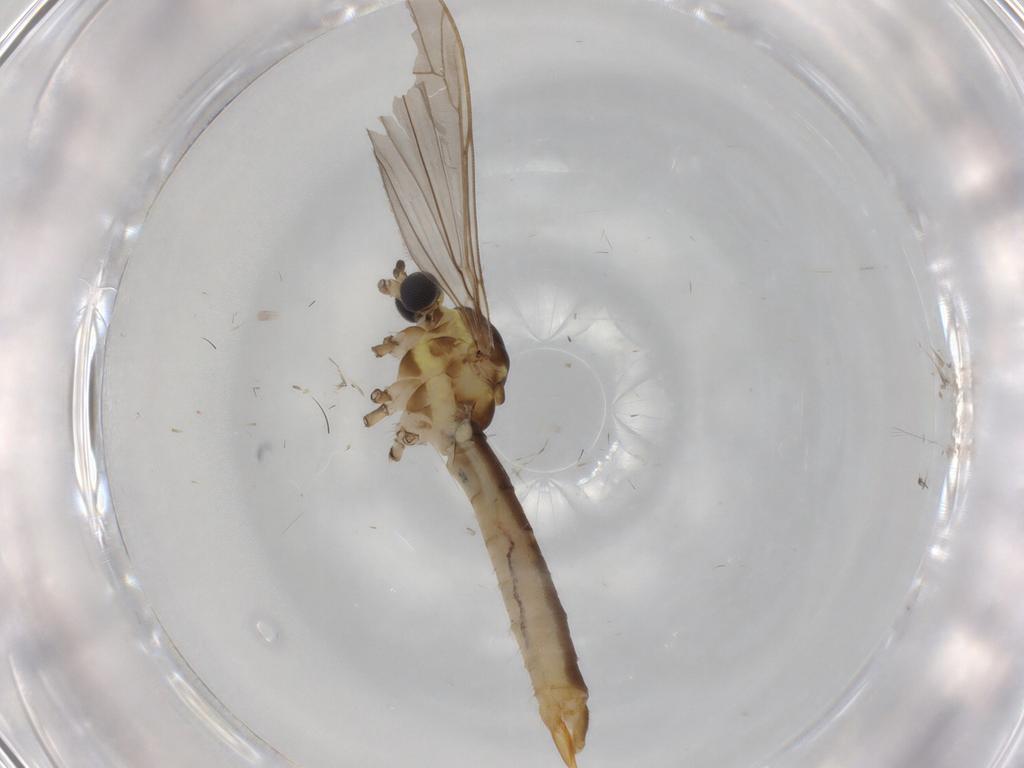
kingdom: Animalia
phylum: Arthropoda
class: Insecta
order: Diptera
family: Limoniidae
